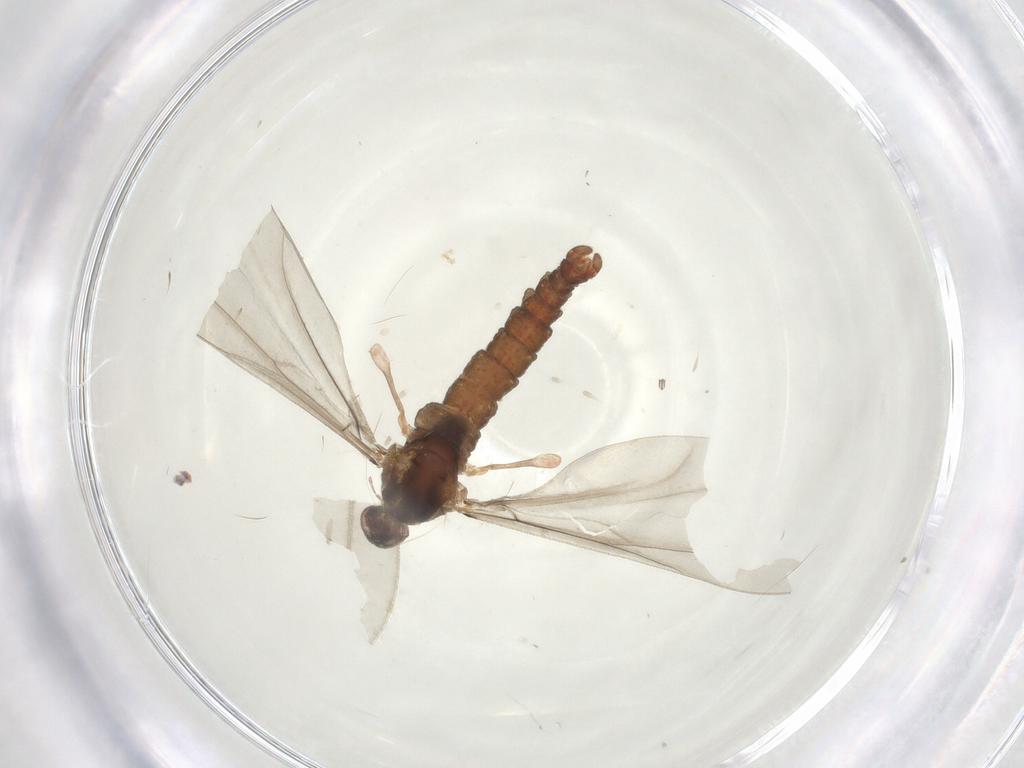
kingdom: Animalia
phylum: Arthropoda
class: Insecta
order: Diptera
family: Cecidomyiidae
